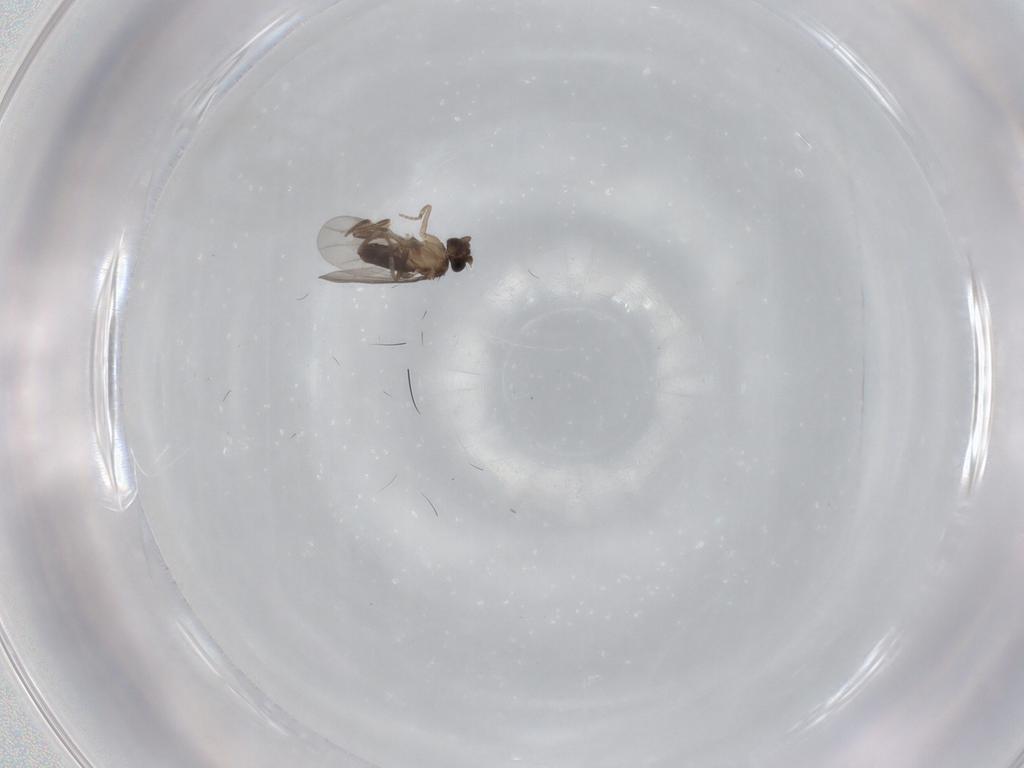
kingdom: Animalia
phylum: Arthropoda
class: Insecta
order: Diptera
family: Phoridae
